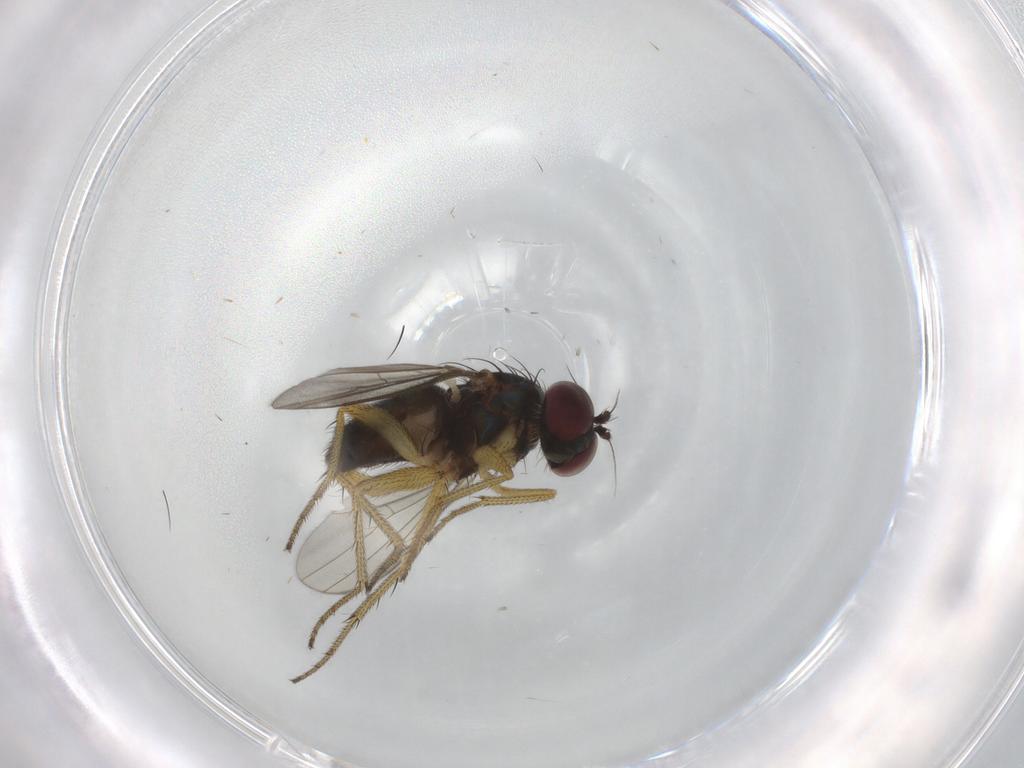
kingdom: Animalia
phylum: Arthropoda
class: Insecta
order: Diptera
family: Dolichopodidae
